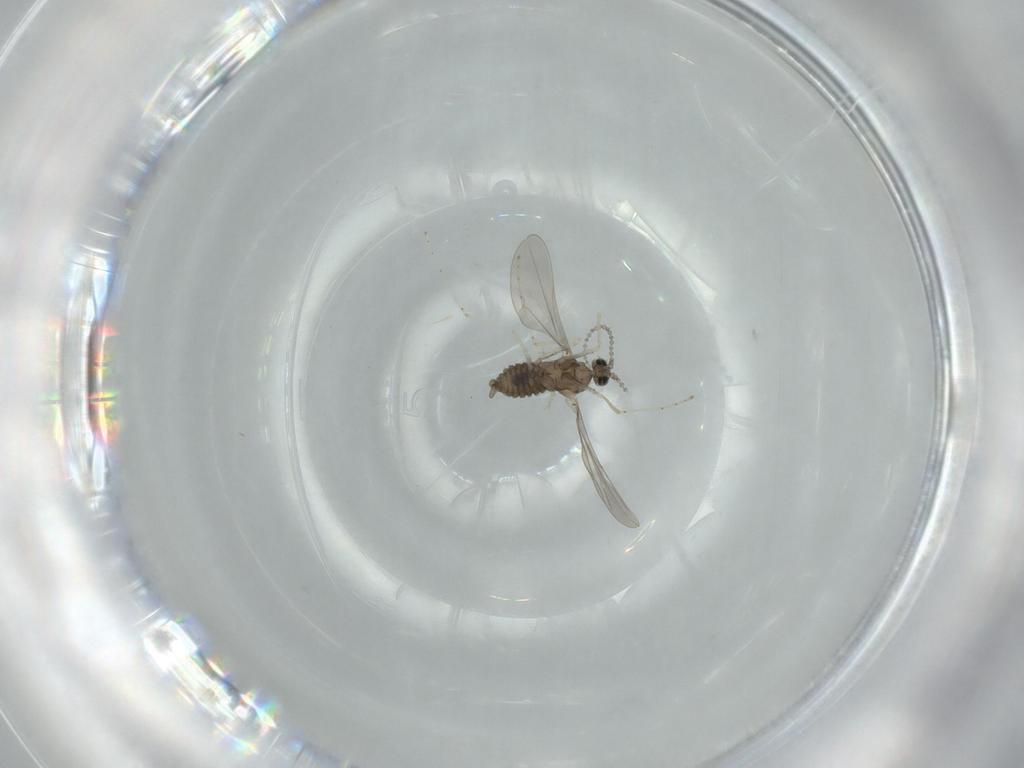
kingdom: Animalia
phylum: Arthropoda
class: Insecta
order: Diptera
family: Cecidomyiidae
